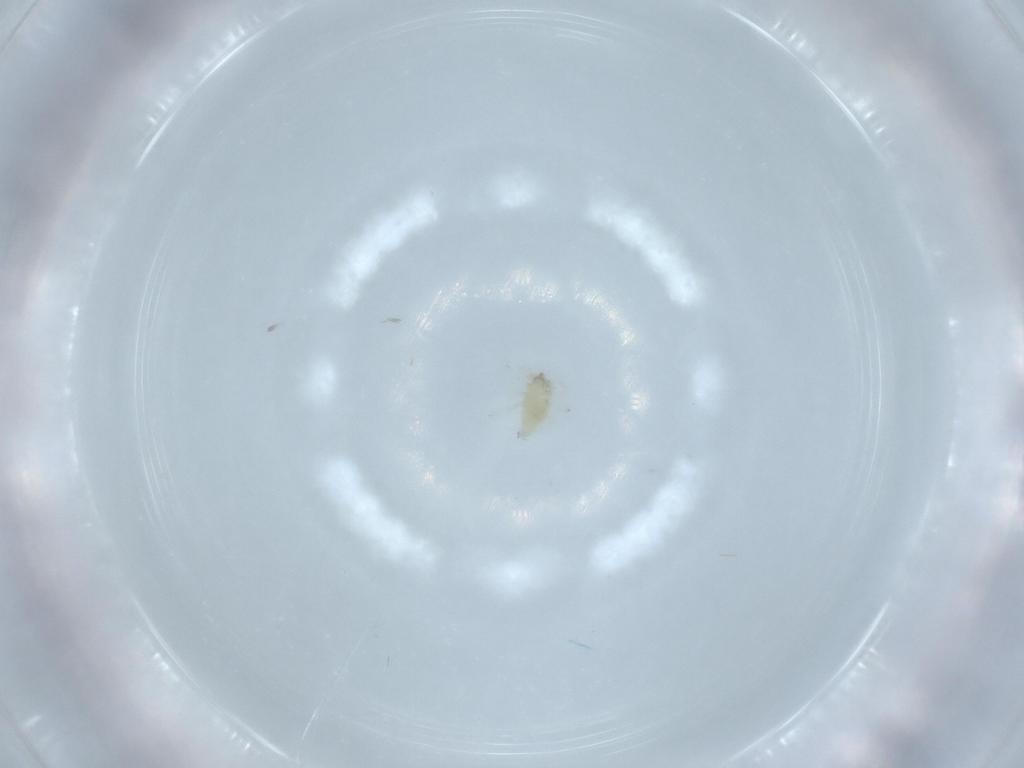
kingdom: Animalia
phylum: Arthropoda
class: Insecta
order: Neuroptera
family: Coniopterygidae
